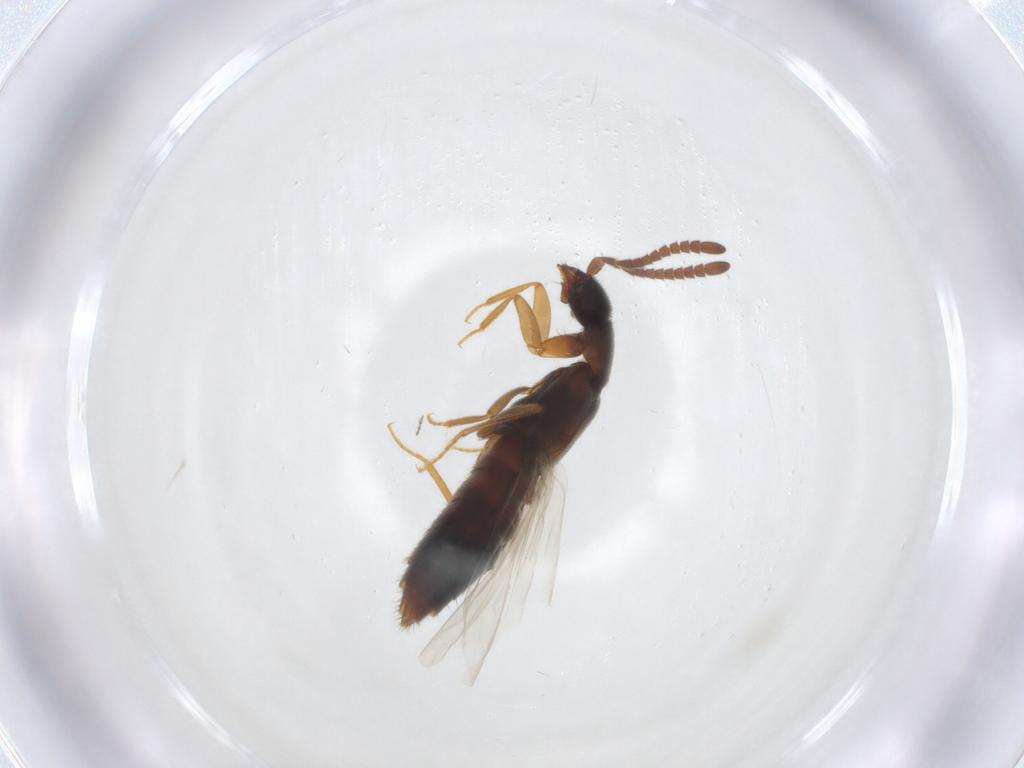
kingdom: Animalia
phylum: Arthropoda
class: Insecta
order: Coleoptera
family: Staphylinidae
